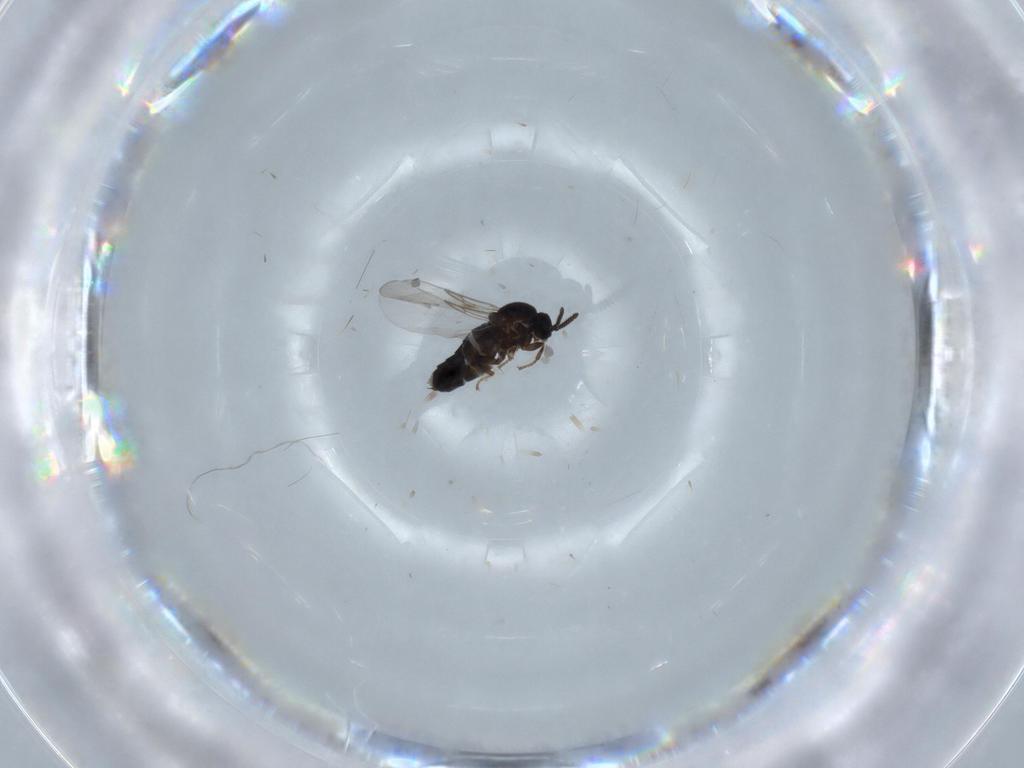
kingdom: Animalia
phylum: Arthropoda
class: Insecta
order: Diptera
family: Scatopsidae
